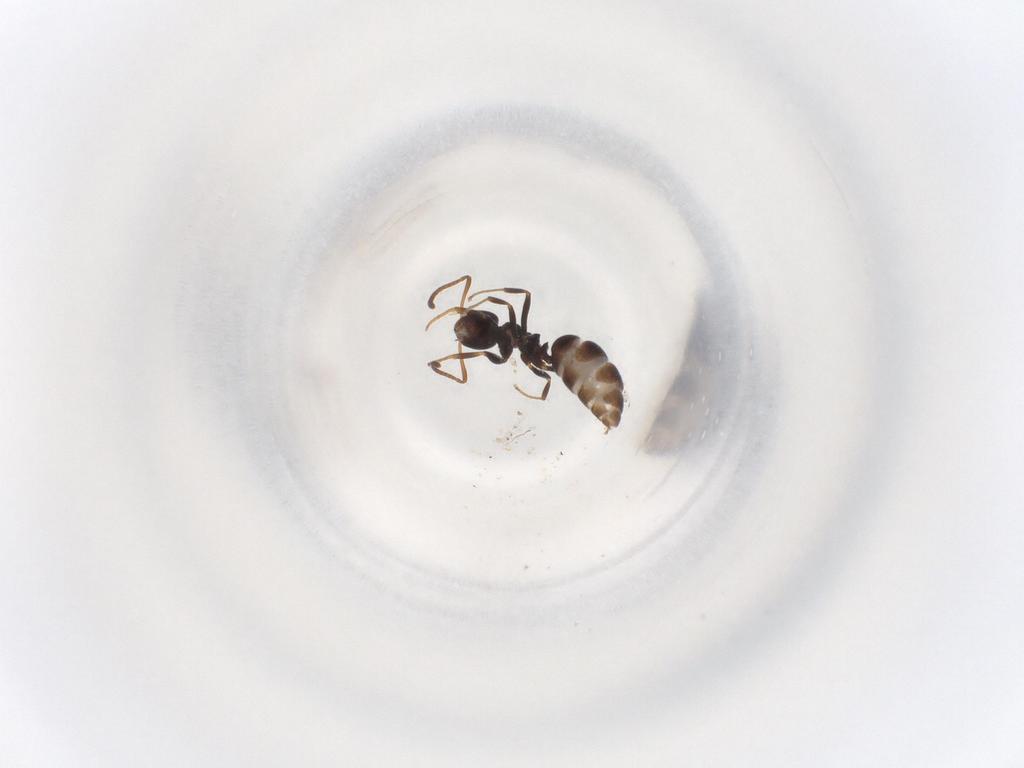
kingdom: Animalia
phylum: Arthropoda
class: Insecta
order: Hymenoptera
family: Formicidae
